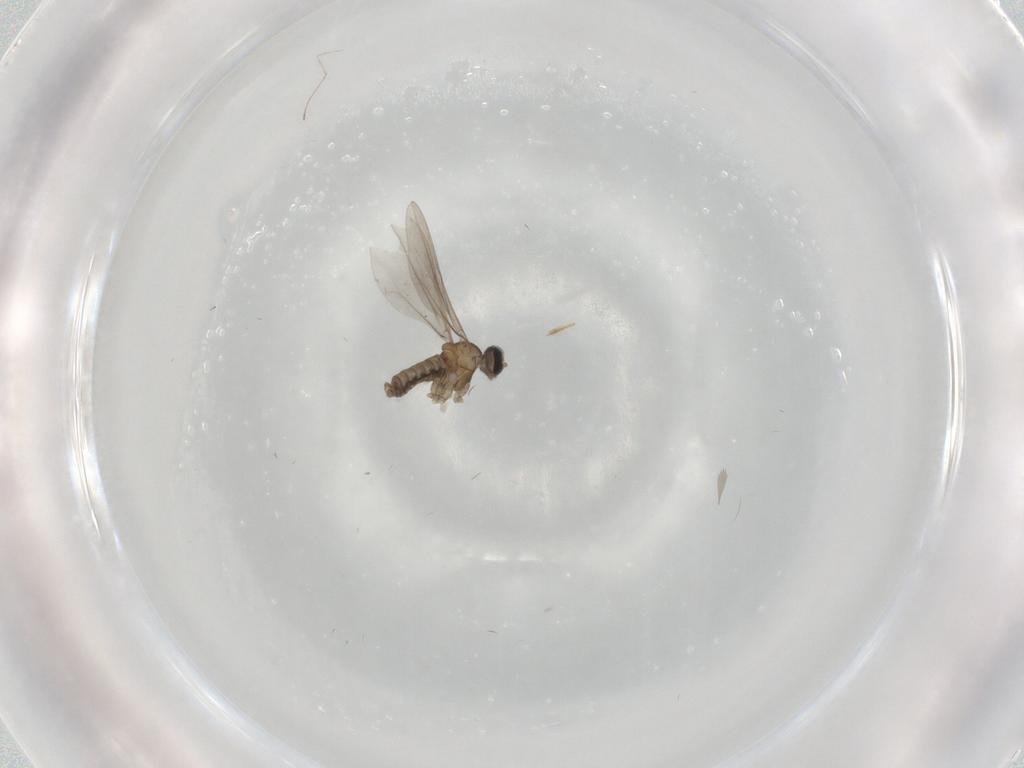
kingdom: Animalia
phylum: Arthropoda
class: Insecta
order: Diptera
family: Cecidomyiidae
